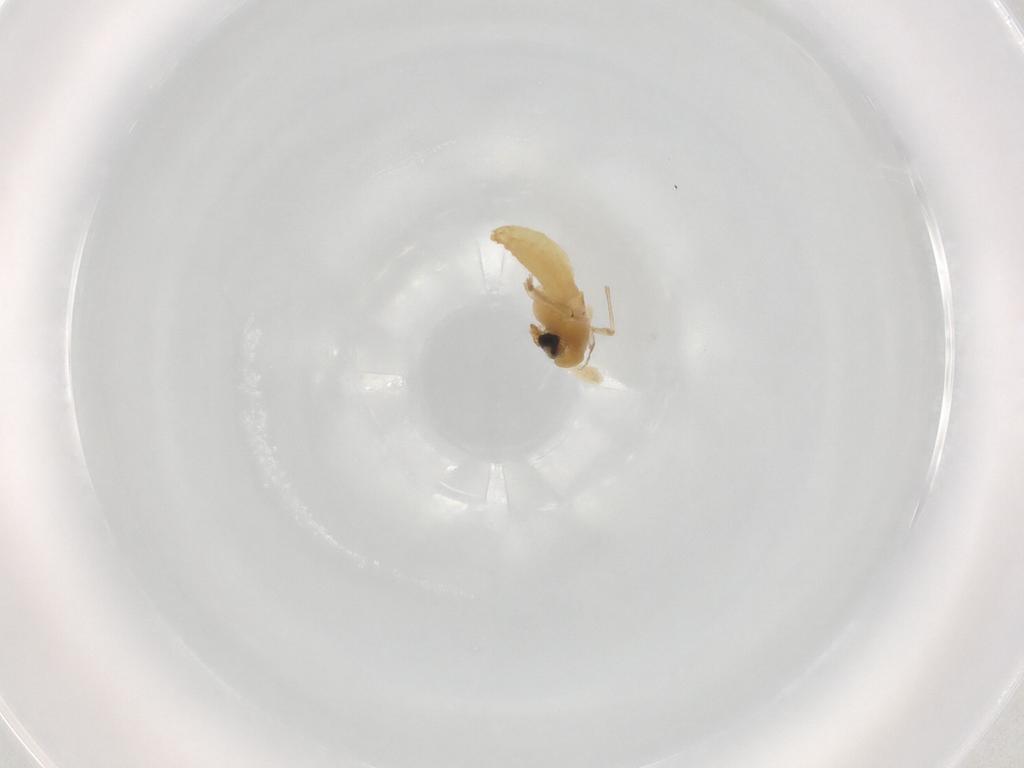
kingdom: Animalia
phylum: Arthropoda
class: Insecta
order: Diptera
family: Chironomidae
